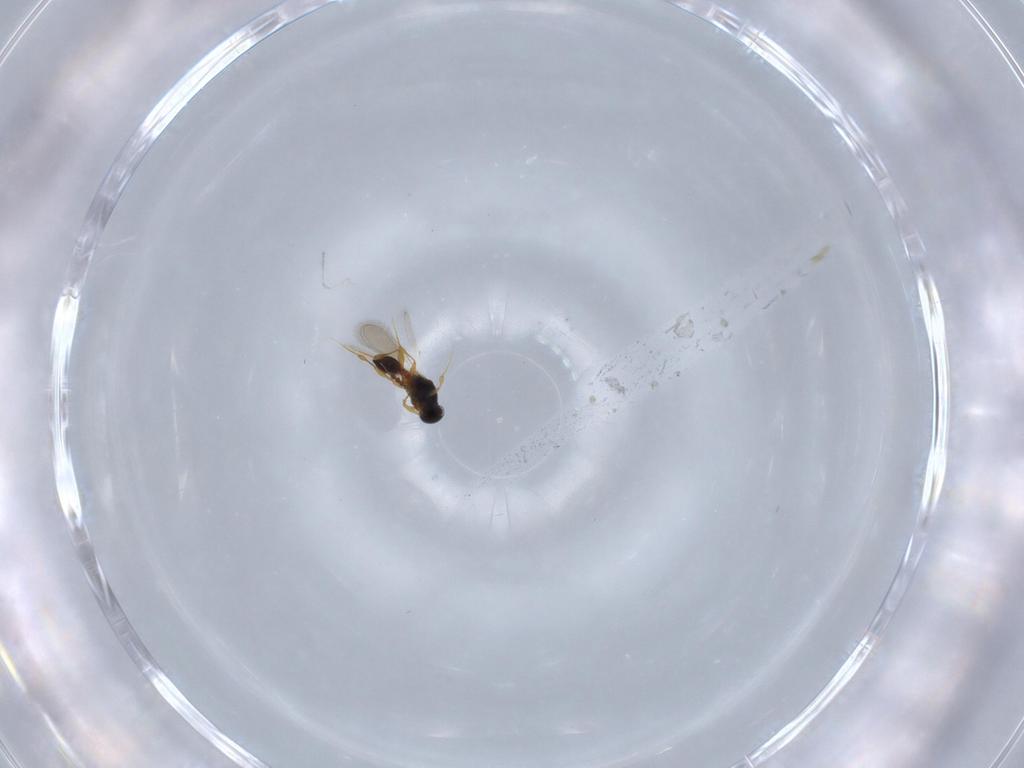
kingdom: Animalia
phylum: Arthropoda
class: Insecta
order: Hymenoptera
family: Platygastridae
